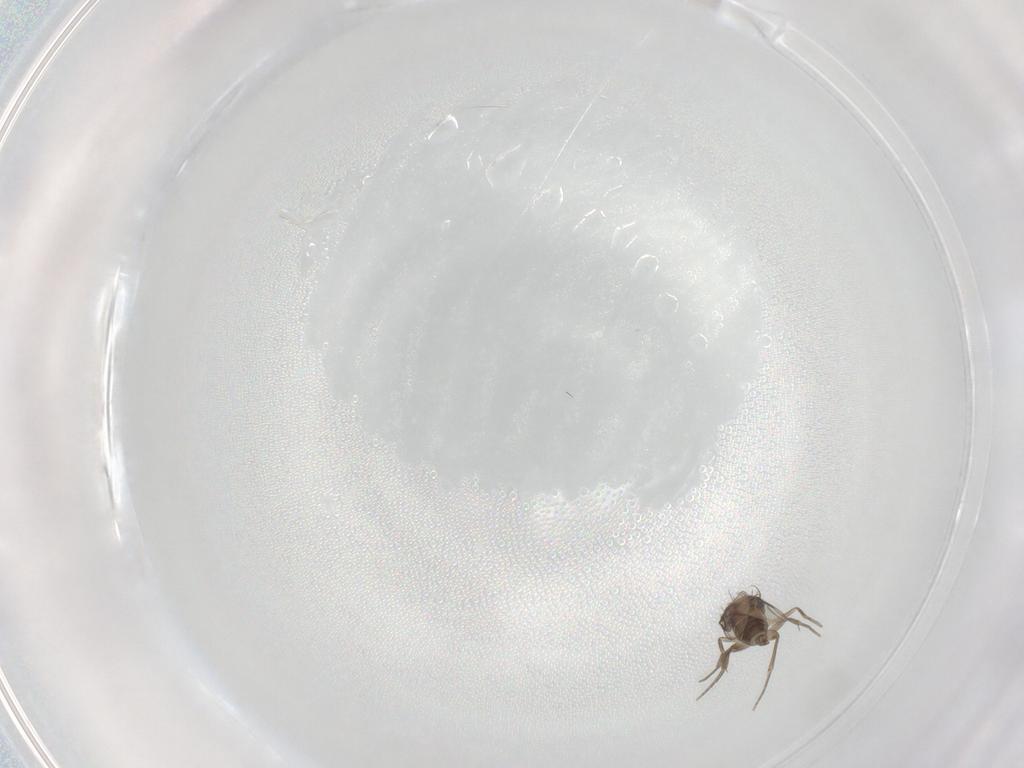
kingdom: Animalia
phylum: Arthropoda
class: Insecta
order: Diptera
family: Phoridae
